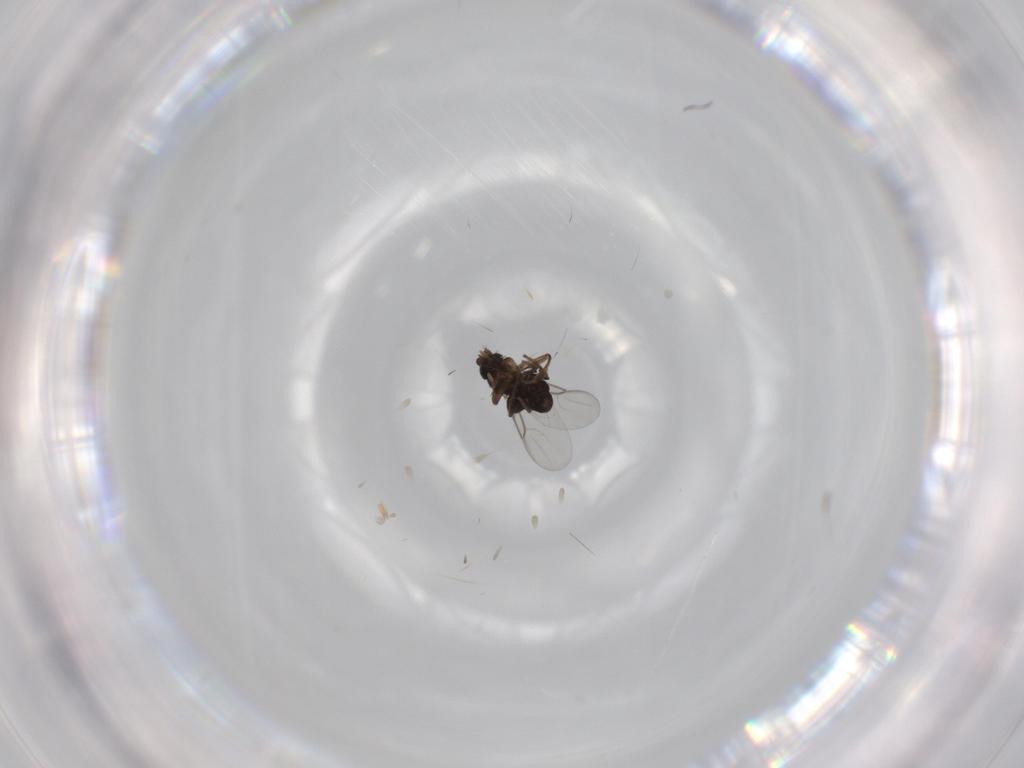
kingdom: Animalia
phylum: Arthropoda
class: Insecta
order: Diptera
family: Phoridae
